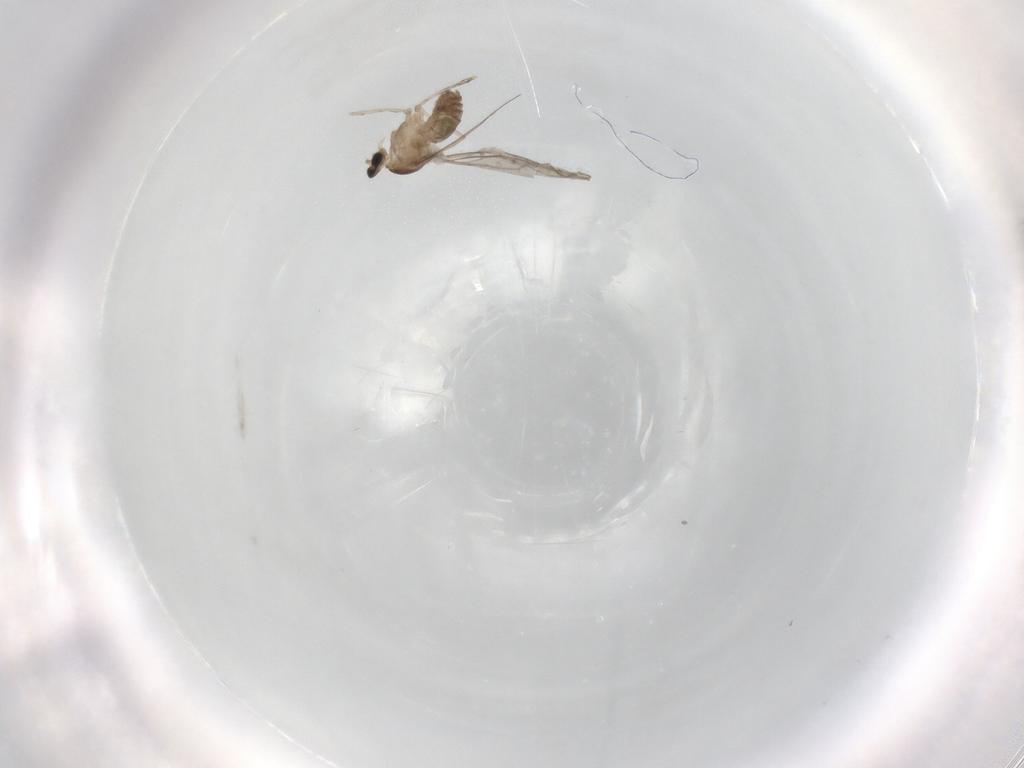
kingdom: Animalia
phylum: Arthropoda
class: Insecta
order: Diptera
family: Cecidomyiidae
